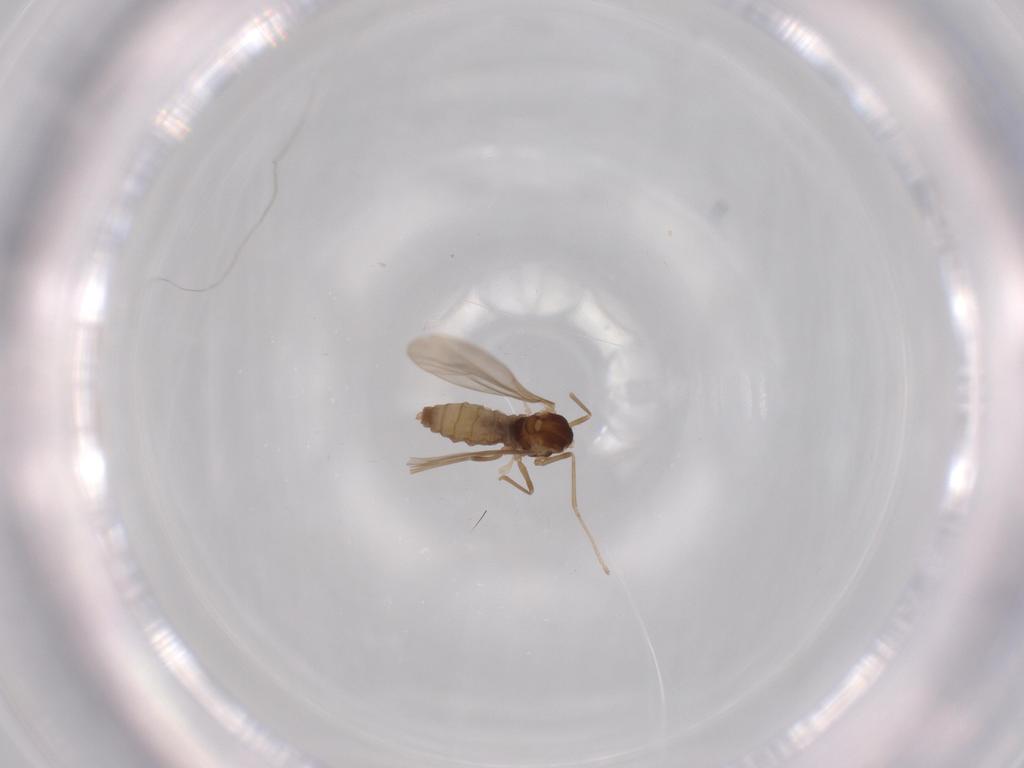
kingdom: Animalia
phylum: Arthropoda
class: Insecta
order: Diptera
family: Cecidomyiidae
